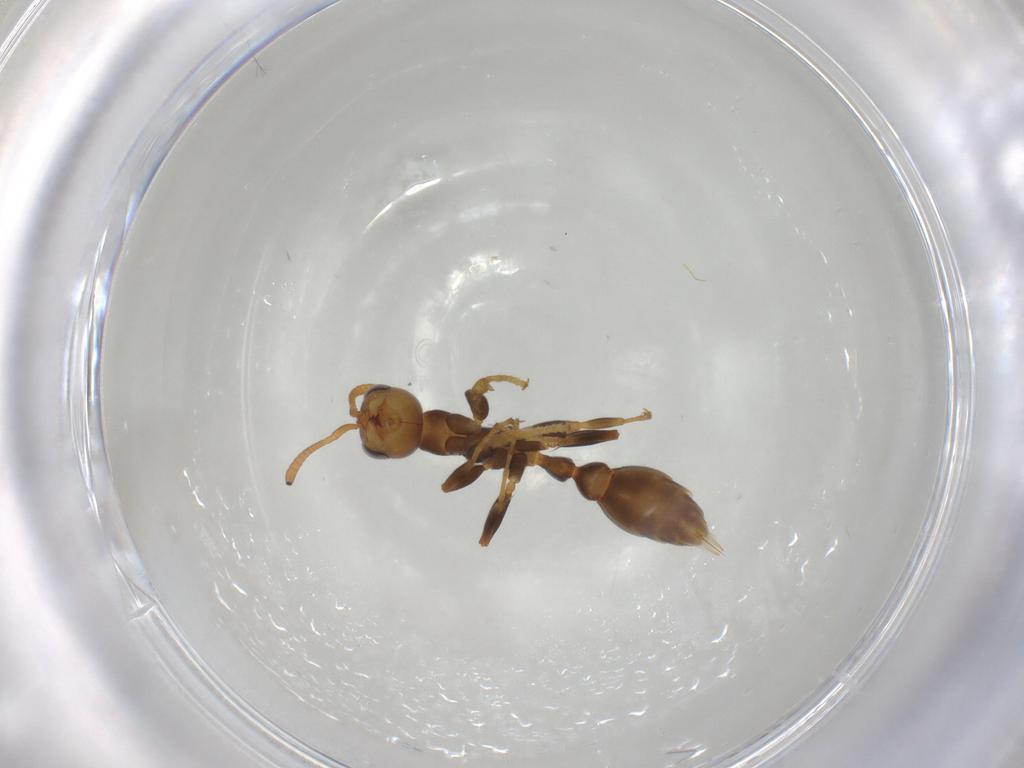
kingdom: Animalia
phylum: Arthropoda
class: Insecta
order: Hymenoptera
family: Formicidae
